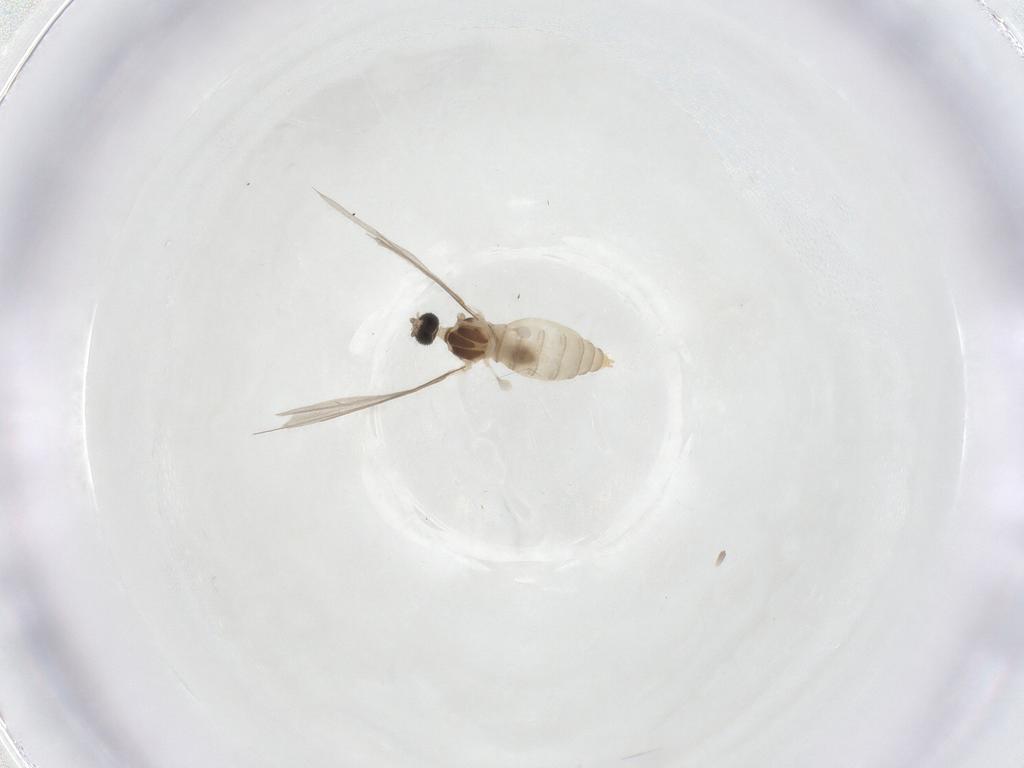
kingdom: Animalia
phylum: Arthropoda
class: Insecta
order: Diptera
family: Cecidomyiidae
